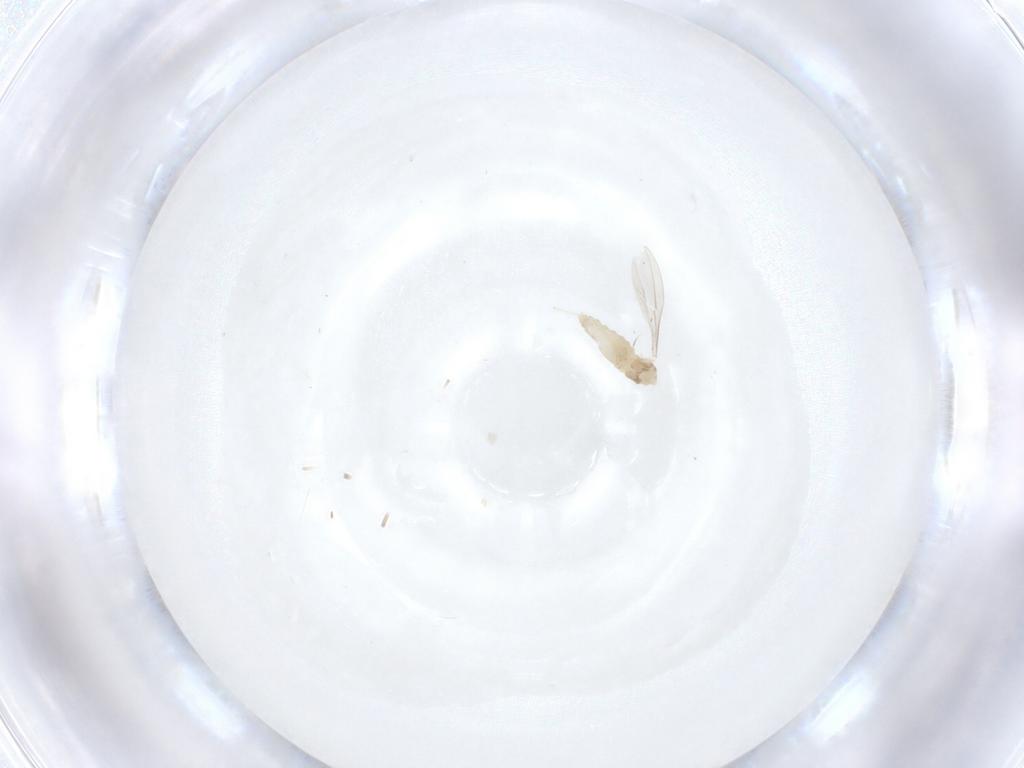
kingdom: Animalia
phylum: Arthropoda
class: Insecta
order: Diptera
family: Cecidomyiidae
